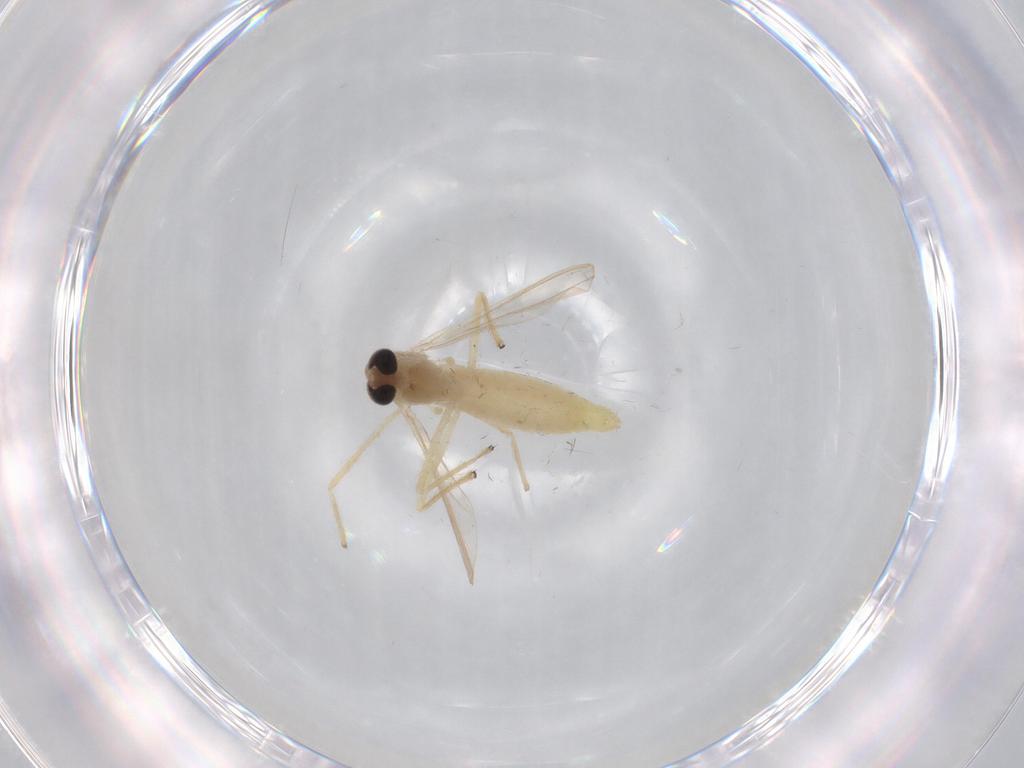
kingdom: Animalia
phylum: Arthropoda
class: Insecta
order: Diptera
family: Chironomidae
